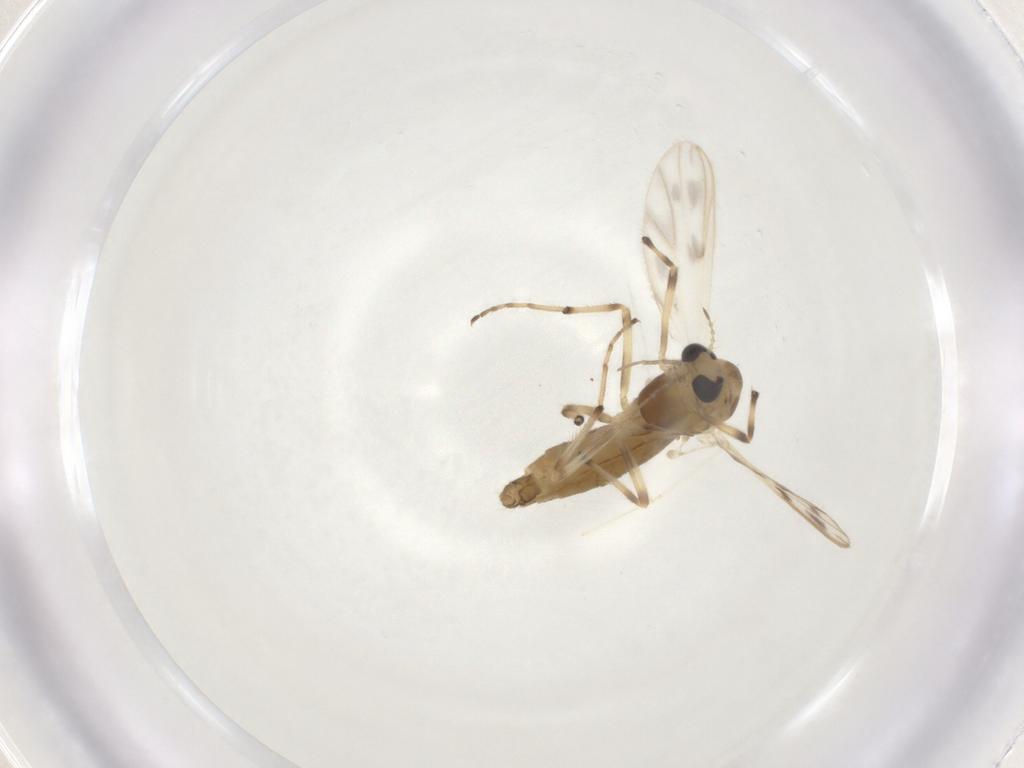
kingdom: Animalia
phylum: Arthropoda
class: Insecta
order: Diptera
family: Chironomidae
